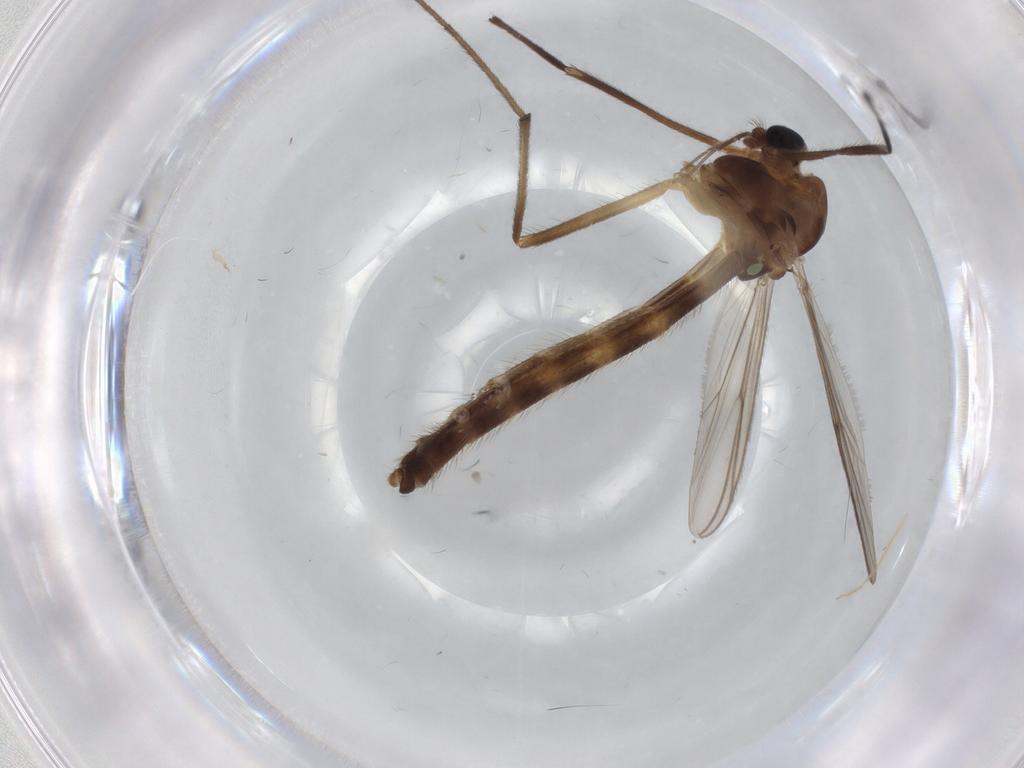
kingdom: Animalia
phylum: Arthropoda
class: Insecta
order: Diptera
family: Chironomidae
